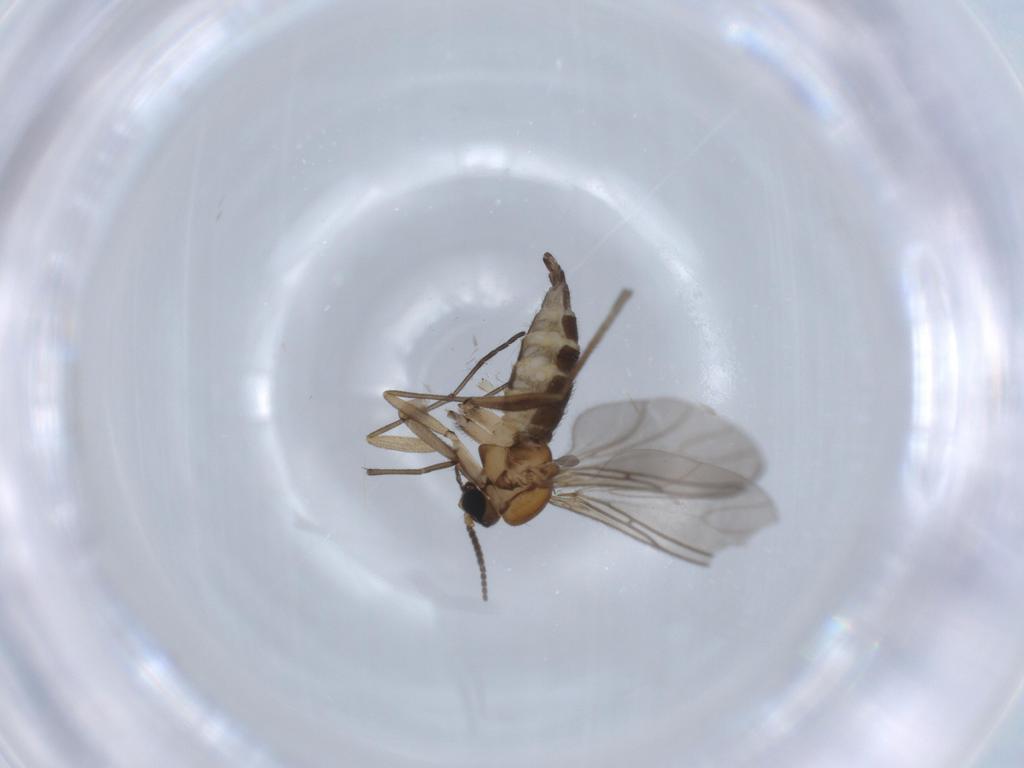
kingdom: Animalia
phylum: Arthropoda
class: Insecta
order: Diptera
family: Sciaridae
